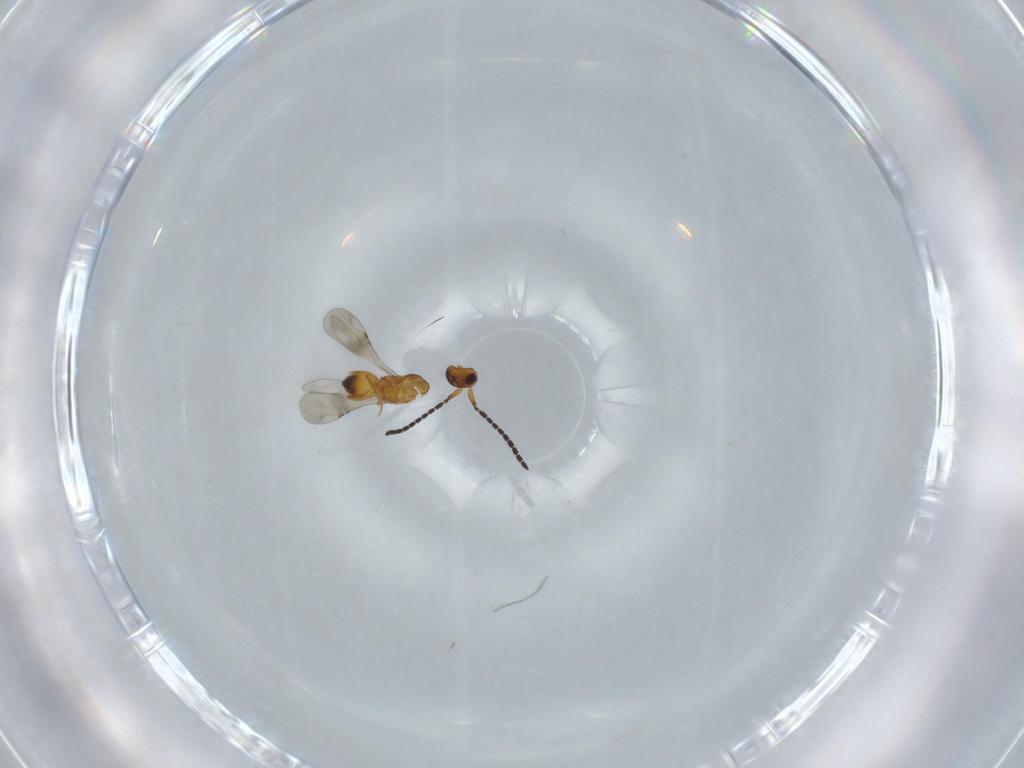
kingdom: Animalia
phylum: Arthropoda
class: Insecta
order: Hymenoptera
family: Ceraphronidae
